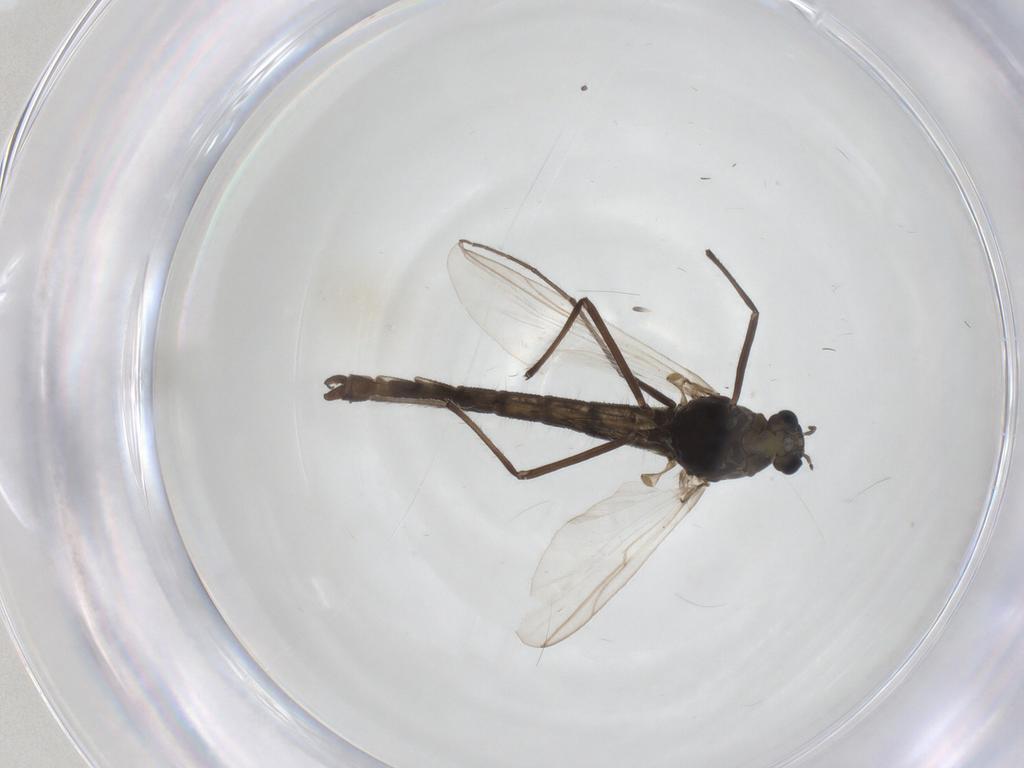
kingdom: Animalia
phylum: Arthropoda
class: Insecta
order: Diptera
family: Chironomidae
